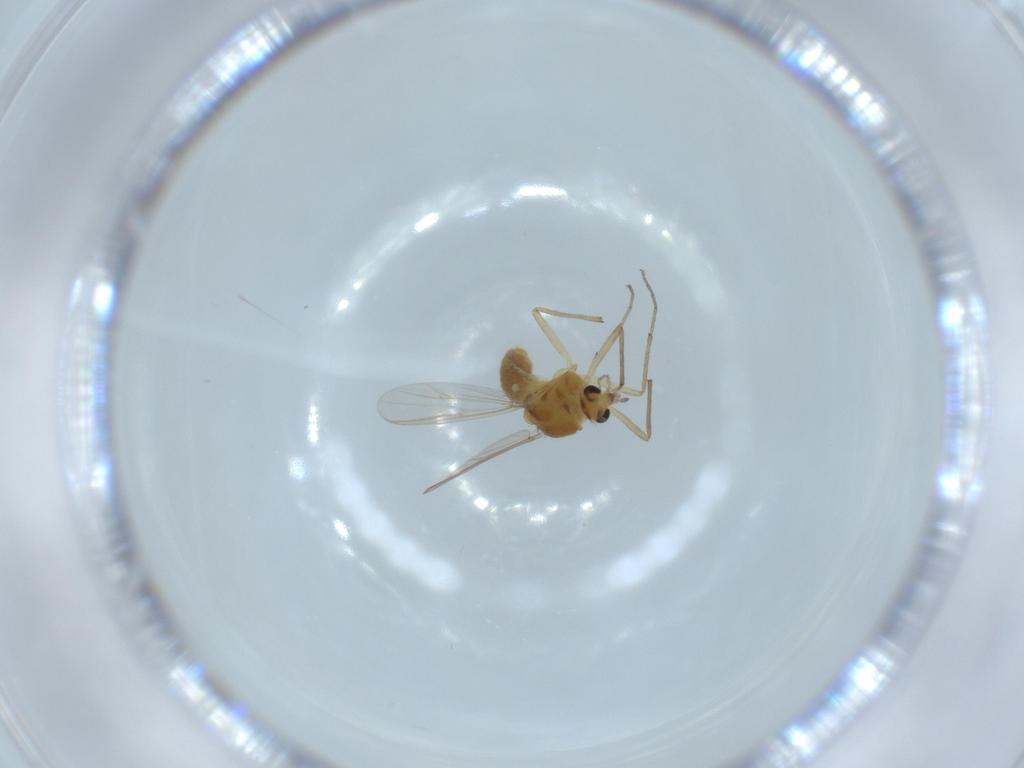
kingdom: Animalia
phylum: Arthropoda
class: Insecta
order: Diptera
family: Chironomidae
